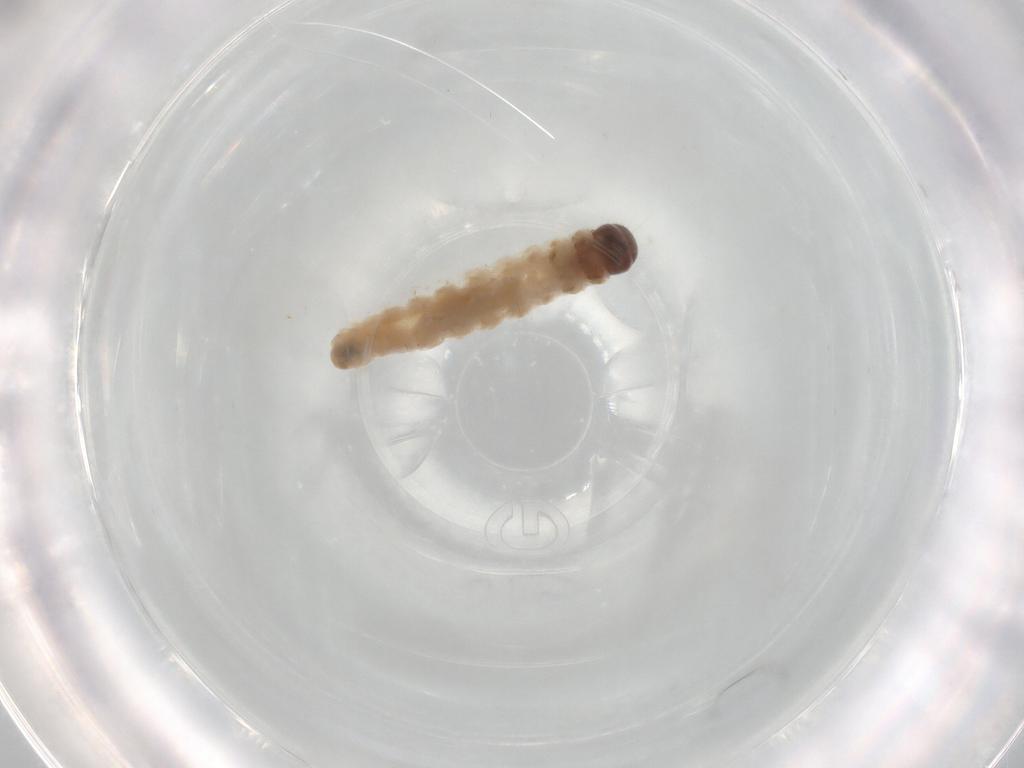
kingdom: Animalia
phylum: Arthropoda
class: Insecta
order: Lepidoptera
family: Psychidae
